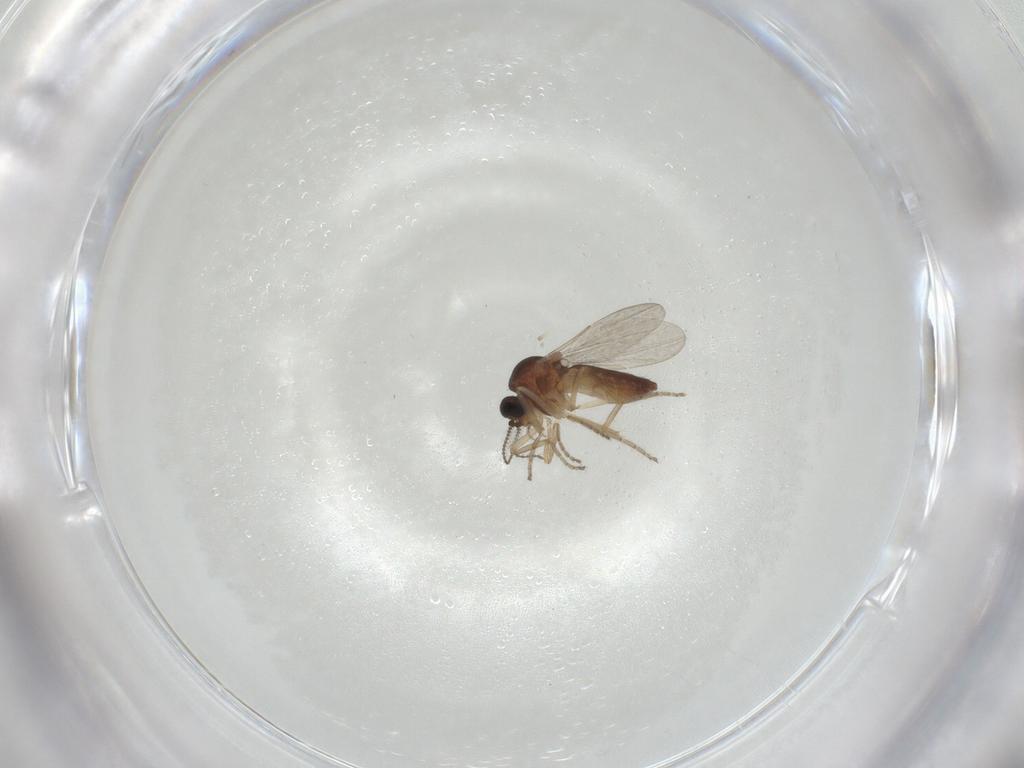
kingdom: Animalia
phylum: Arthropoda
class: Insecta
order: Diptera
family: Ceratopogonidae
